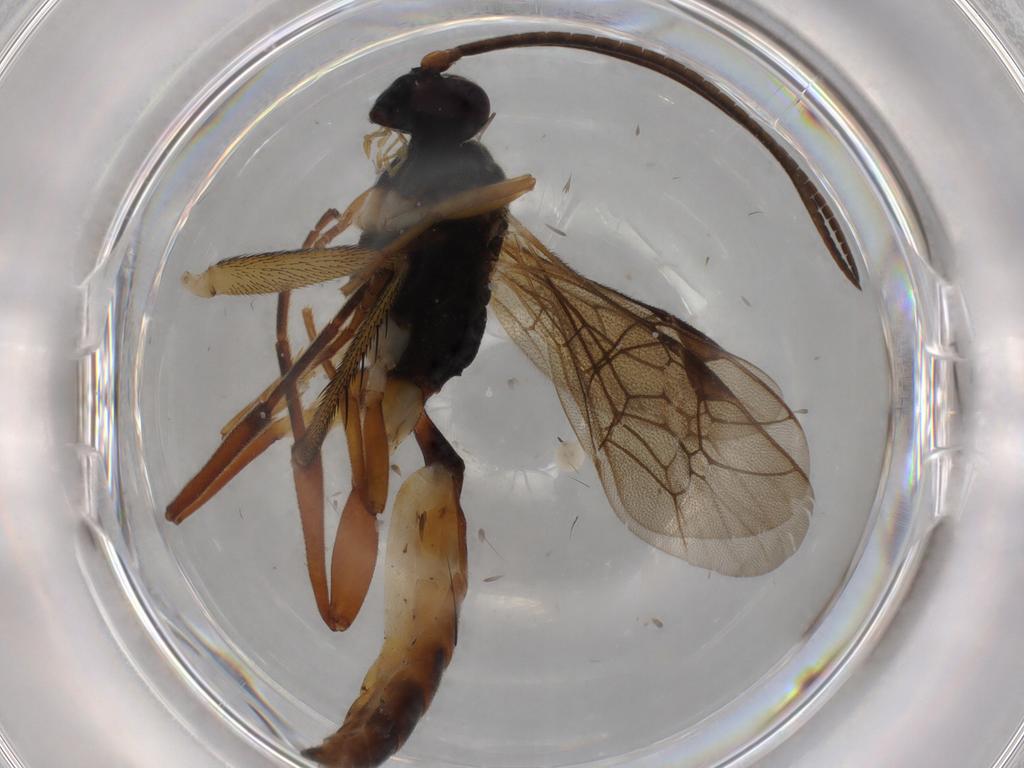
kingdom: Animalia
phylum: Arthropoda
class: Insecta
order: Hymenoptera
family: Ichneumonidae
